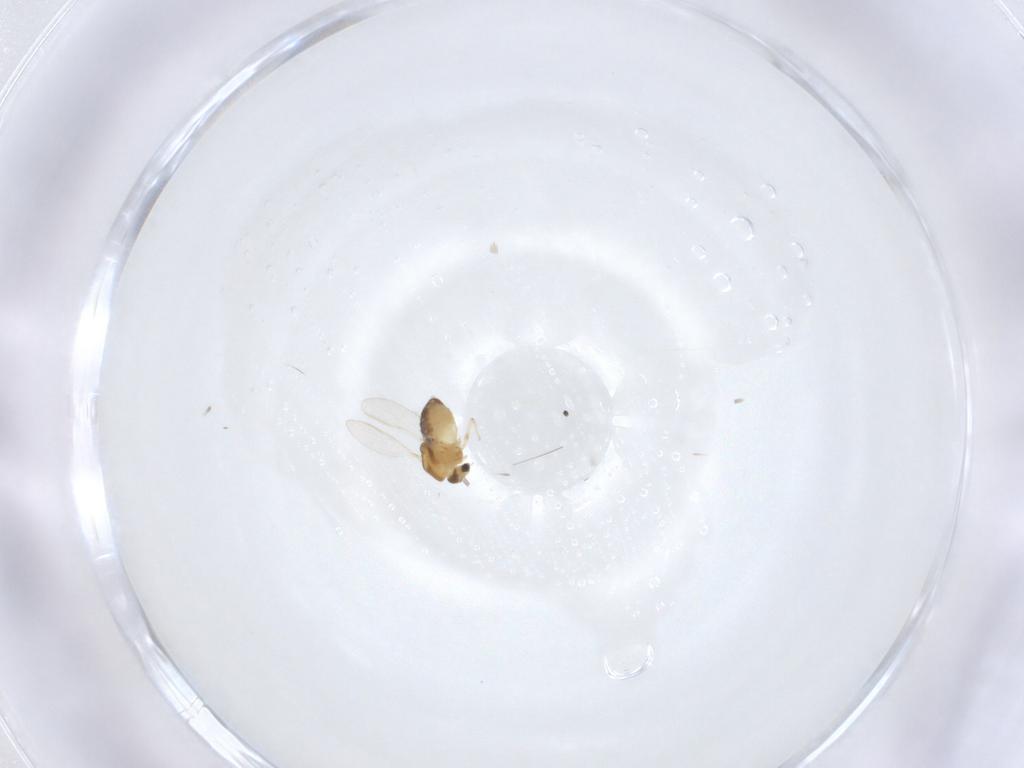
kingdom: Animalia
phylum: Arthropoda
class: Insecta
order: Diptera
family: Chironomidae
